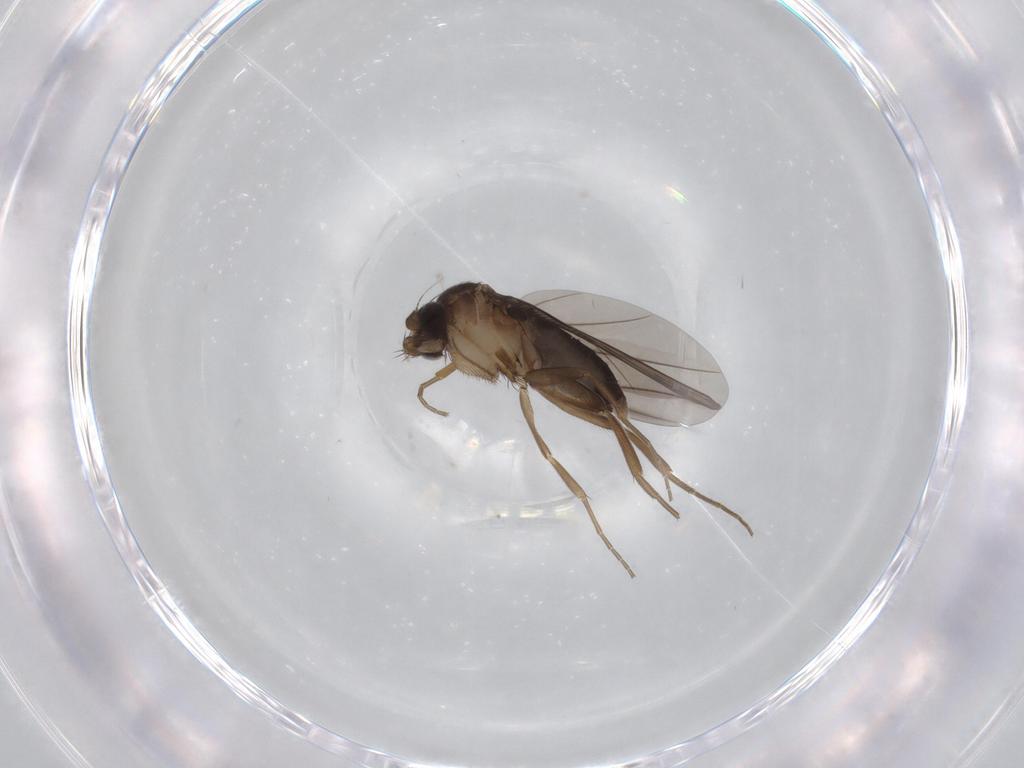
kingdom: Animalia
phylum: Arthropoda
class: Insecta
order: Diptera
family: Phoridae
